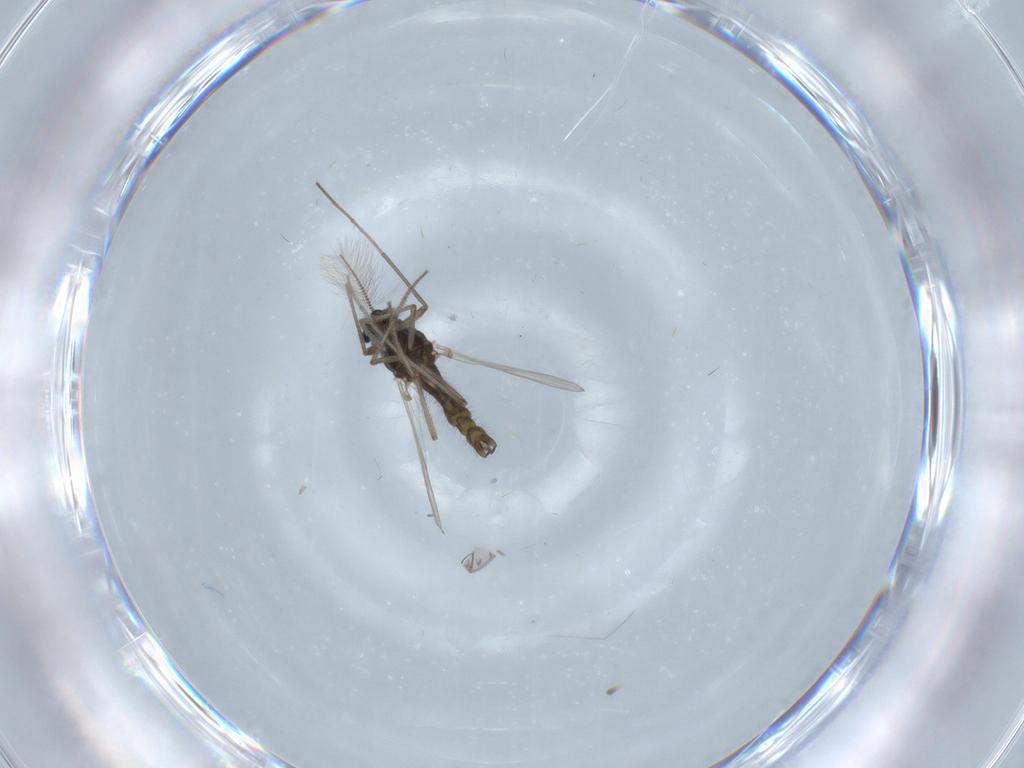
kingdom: Animalia
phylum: Arthropoda
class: Insecta
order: Diptera
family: Chironomidae
